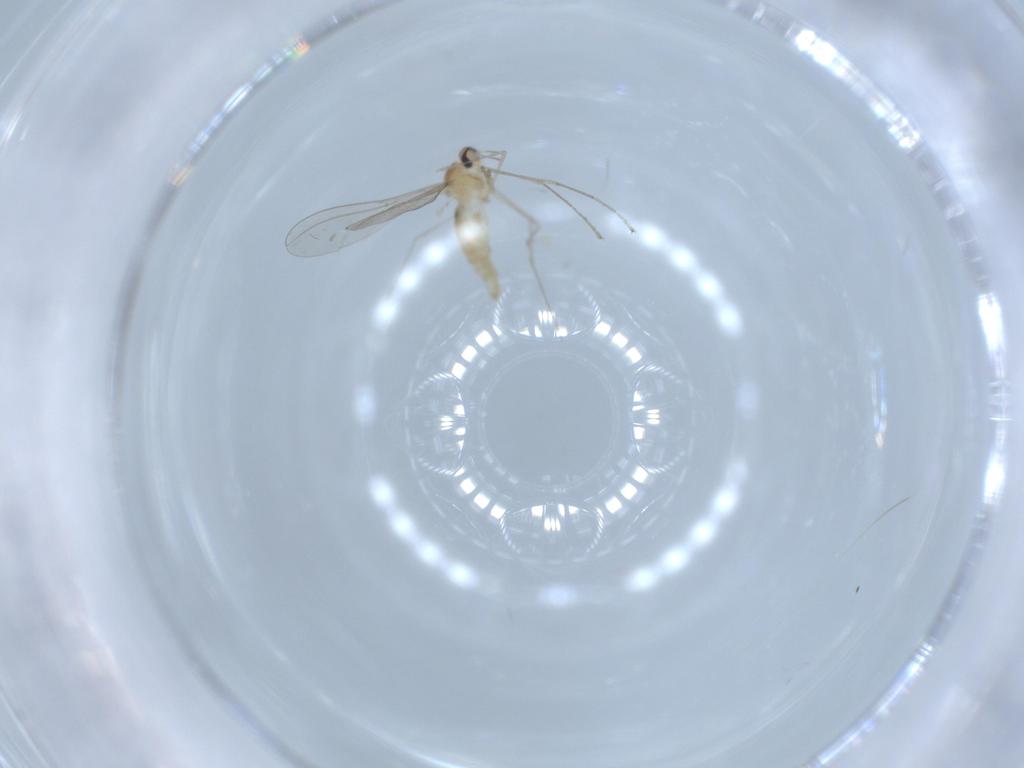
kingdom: Animalia
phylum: Arthropoda
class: Insecta
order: Diptera
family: Cecidomyiidae
